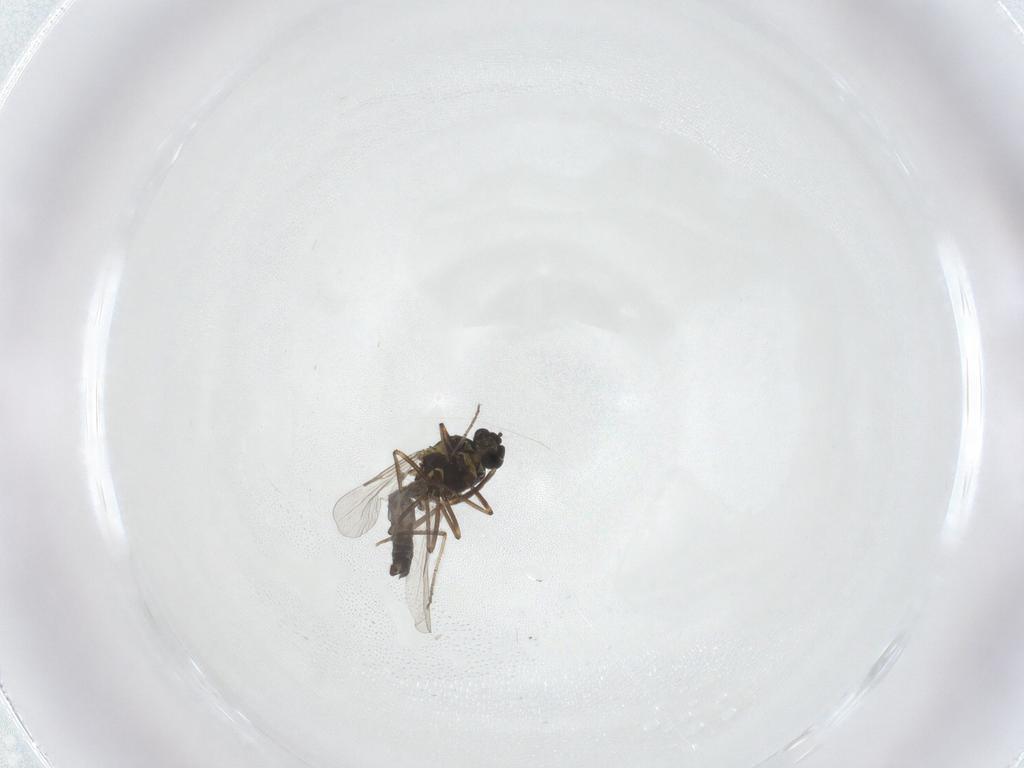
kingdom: Animalia
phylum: Arthropoda
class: Insecta
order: Diptera
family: Ceratopogonidae
